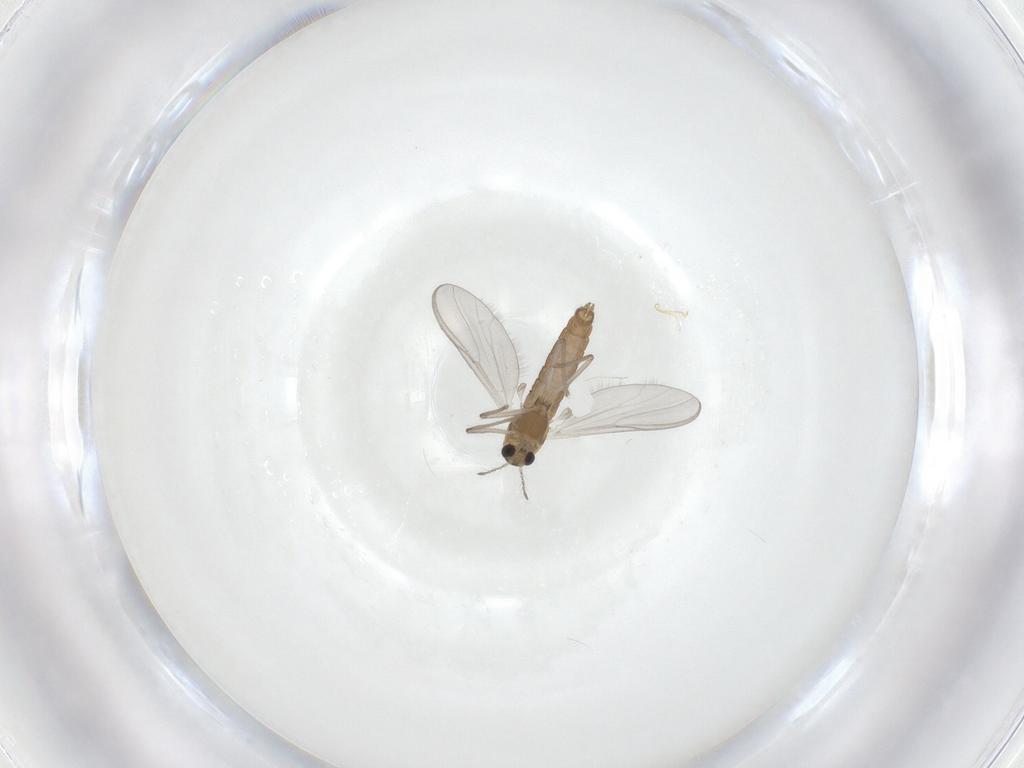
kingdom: Animalia
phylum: Arthropoda
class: Insecta
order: Diptera
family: Chironomidae
